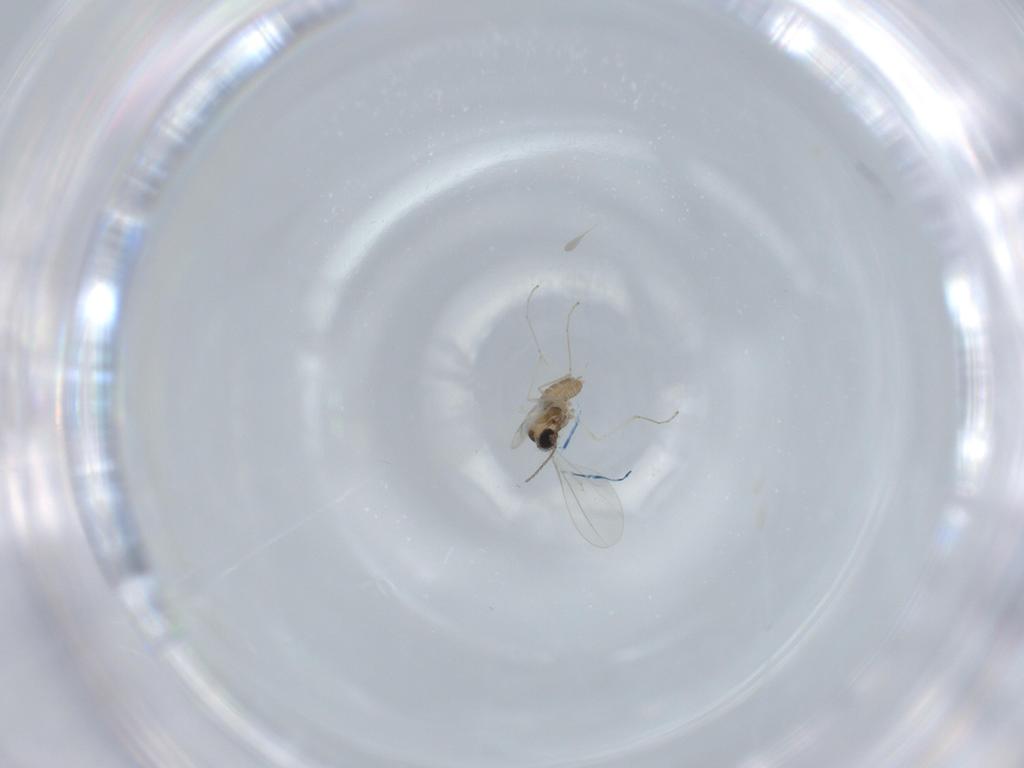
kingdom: Animalia
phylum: Arthropoda
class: Insecta
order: Diptera
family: Cecidomyiidae
